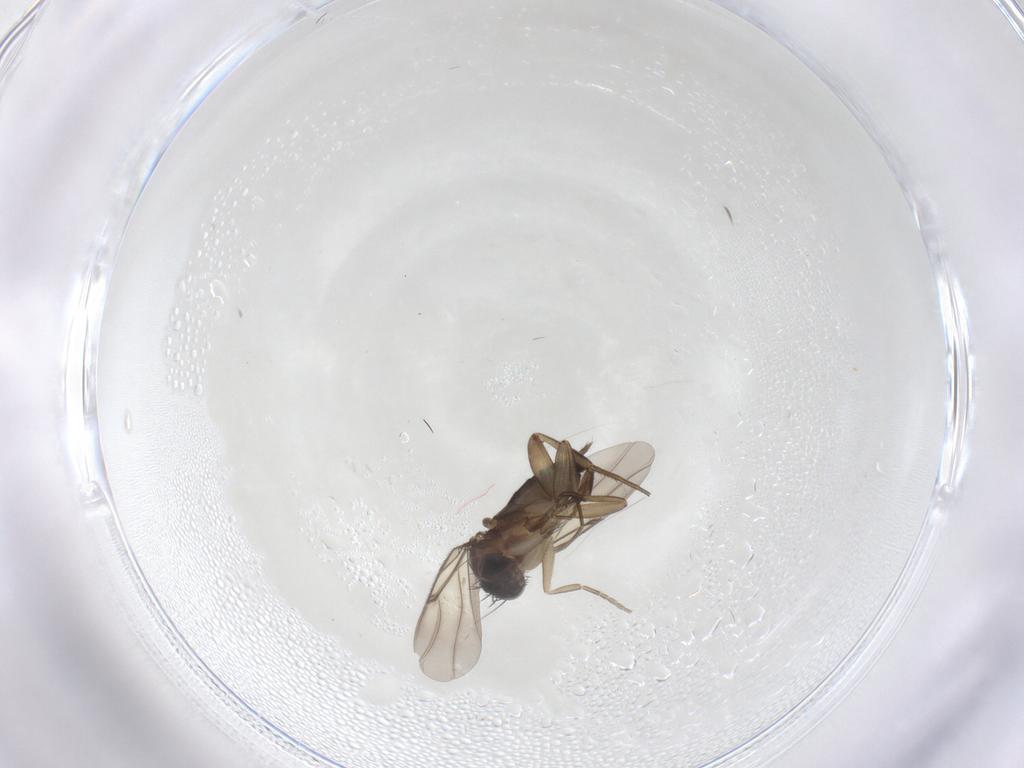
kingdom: Animalia
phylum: Arthropoda
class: Insecta
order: Diptera
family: Phoridae
